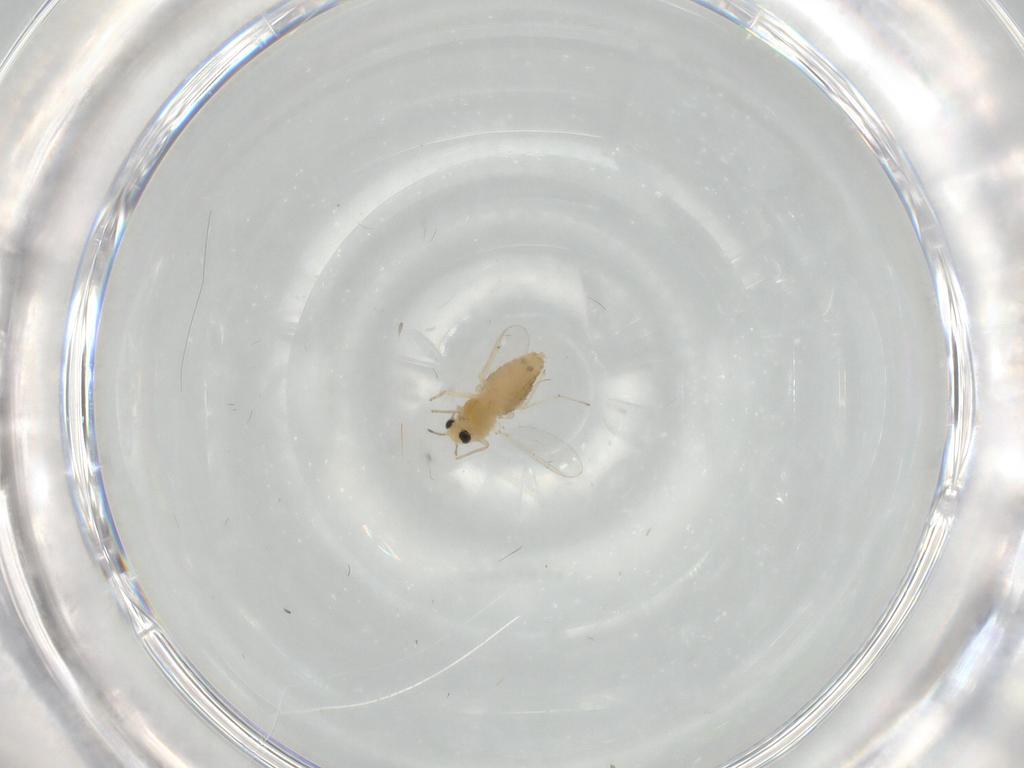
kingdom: Animalia
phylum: Arthropoda
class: Insecta
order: Diptera
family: Chironomidae
